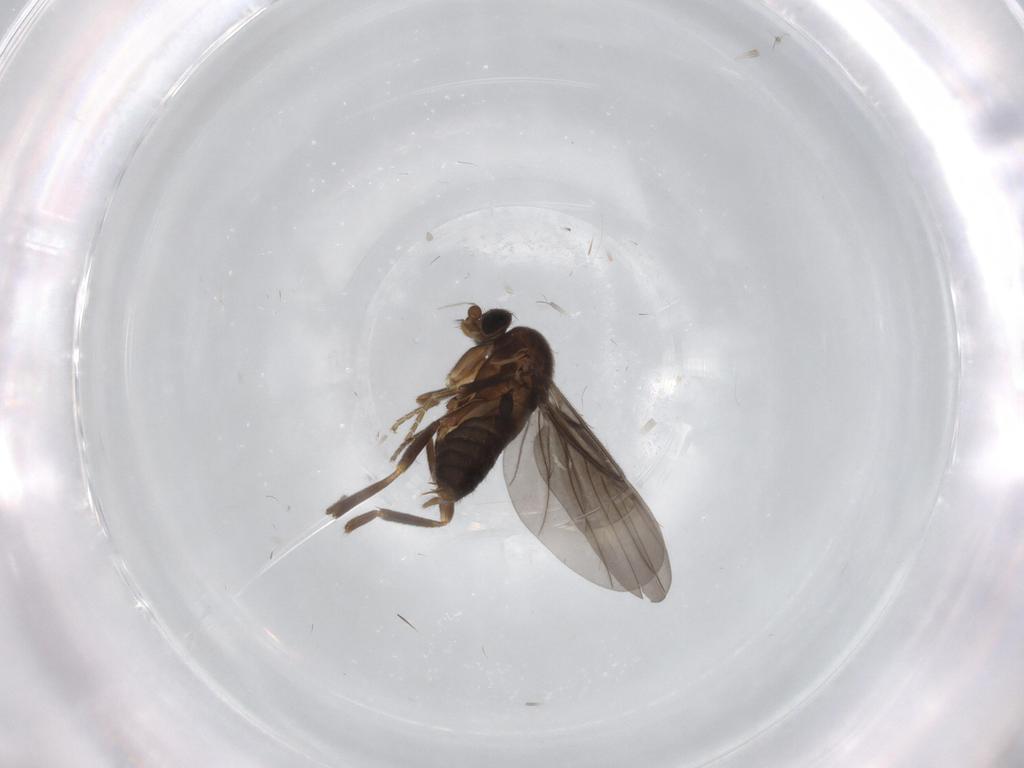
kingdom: Animalia
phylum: Arthropoda
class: Insecta
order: Diptera
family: Phoridae
